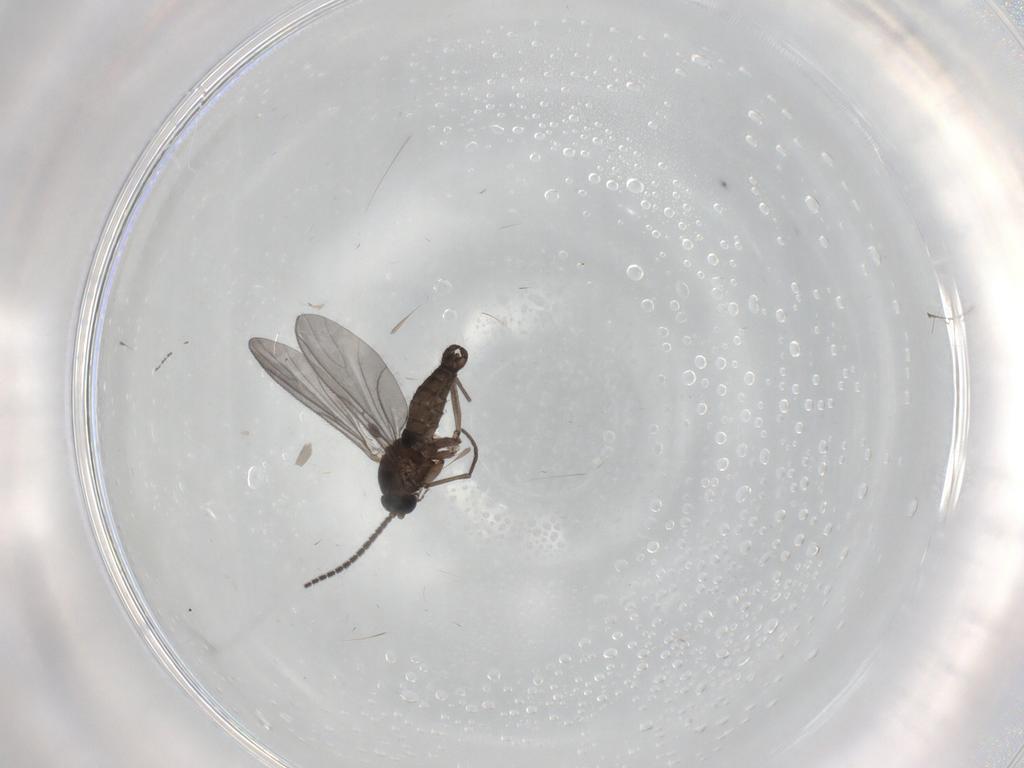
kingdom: Animalia
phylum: Arthropoda
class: Insecta
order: Diptera
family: Sciaridae
